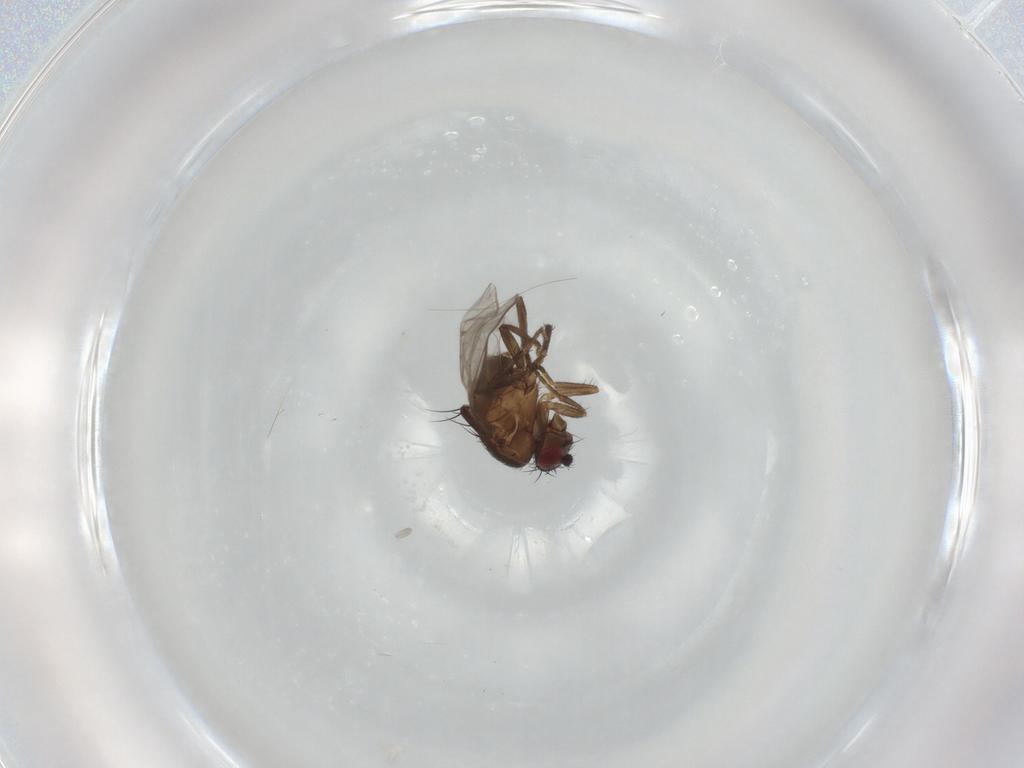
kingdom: Animalia
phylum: Arthropoda
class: Insecta
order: Diptera
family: Sphaeroceridae
